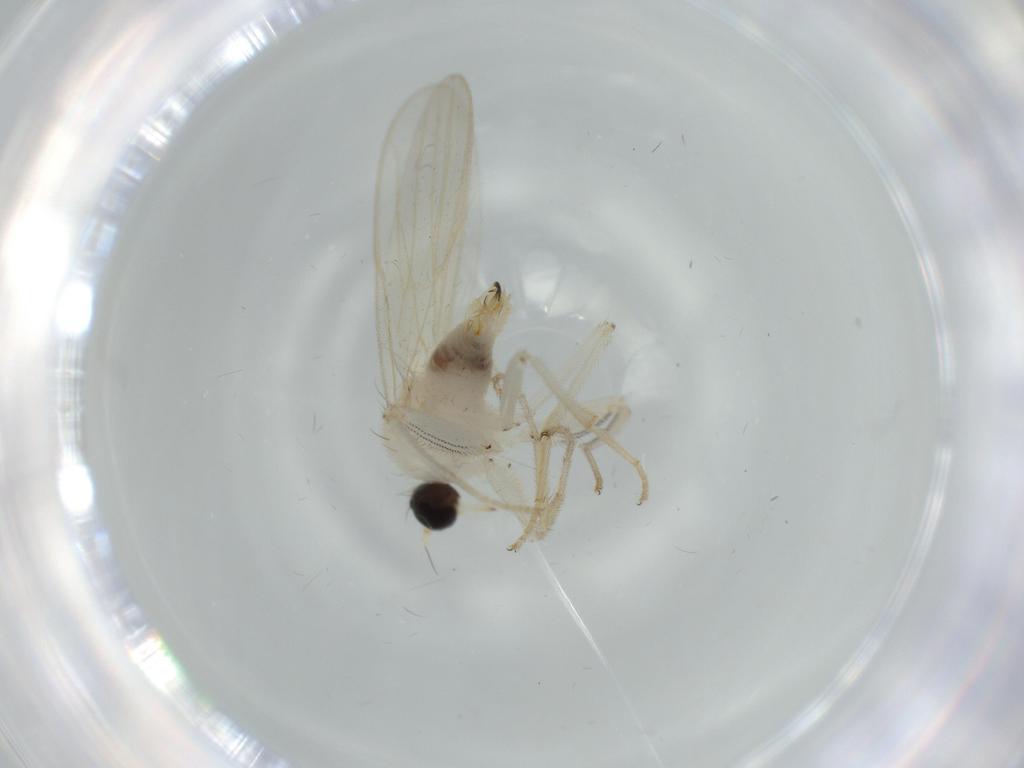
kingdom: Animalia
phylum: Arthropoda
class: Insecta
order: Diptera
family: Hybotidae
